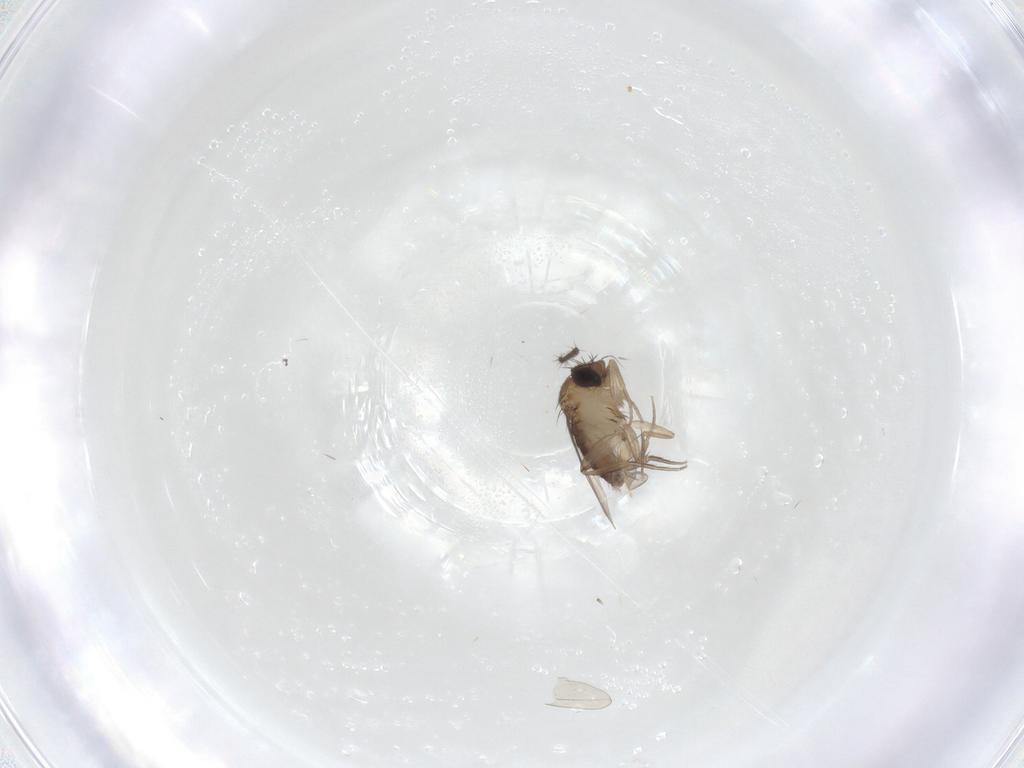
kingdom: Animalia
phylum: Arthropoda
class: Insecta
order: Diptera
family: Phoridae
